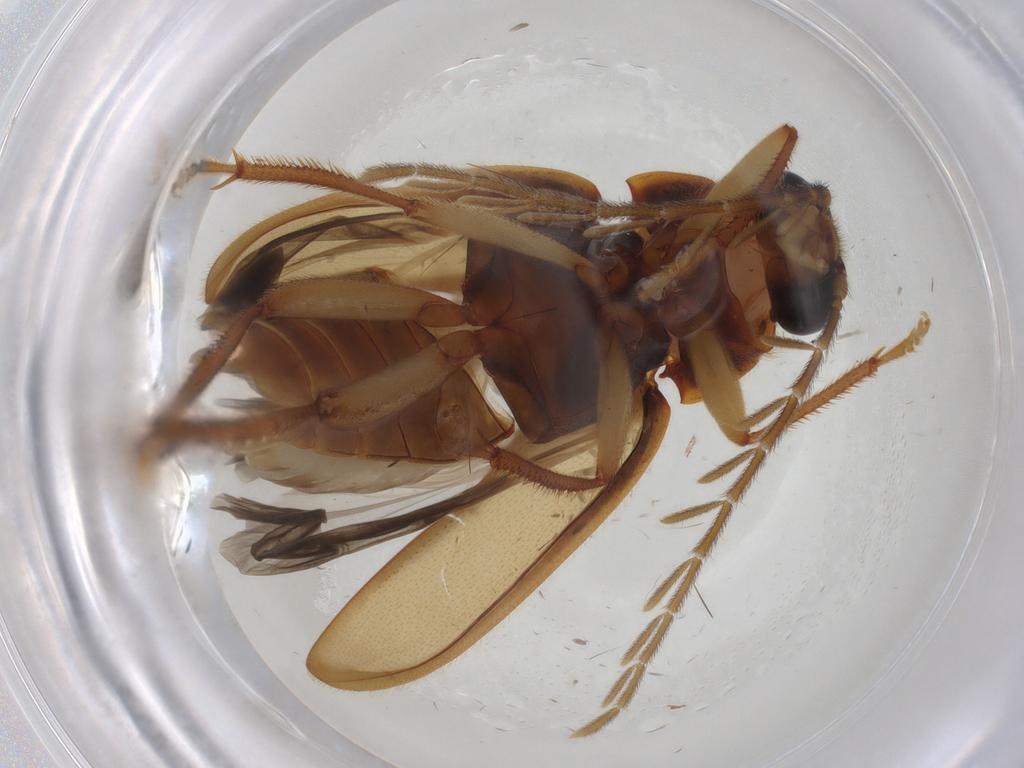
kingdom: Animalia
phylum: Arthropoda
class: Insecta
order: Coleoptera
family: Ptilodactylidae
